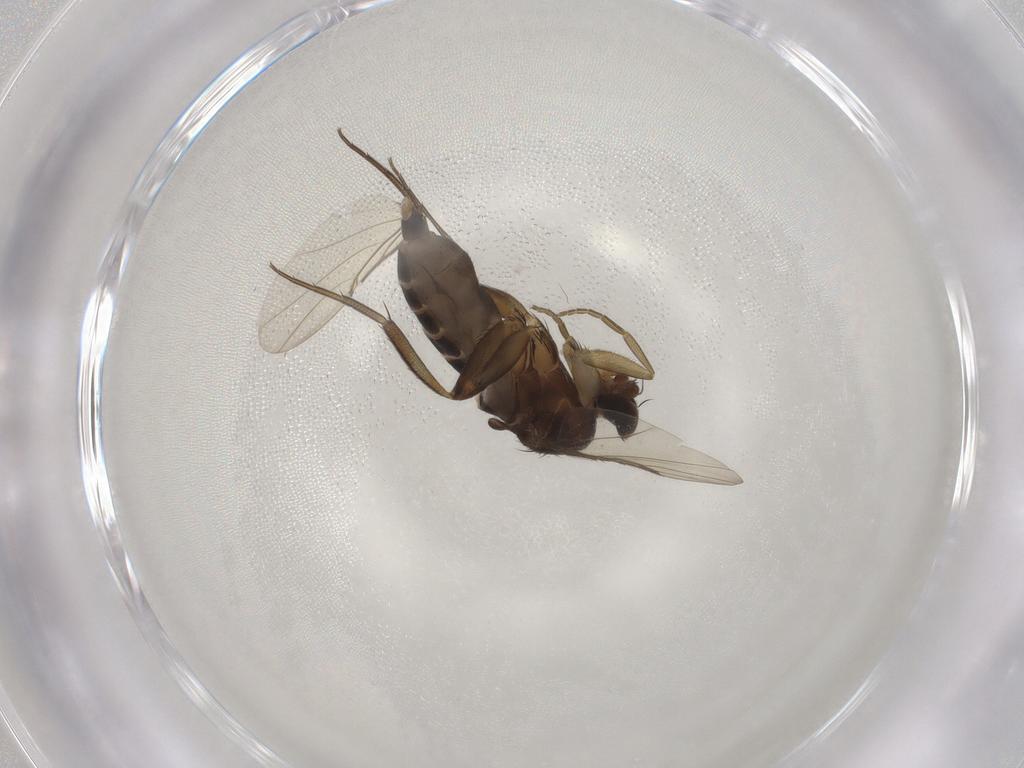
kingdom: Animalia
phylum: Arthropoda
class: Insecta
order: Diptera
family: Phoridae
